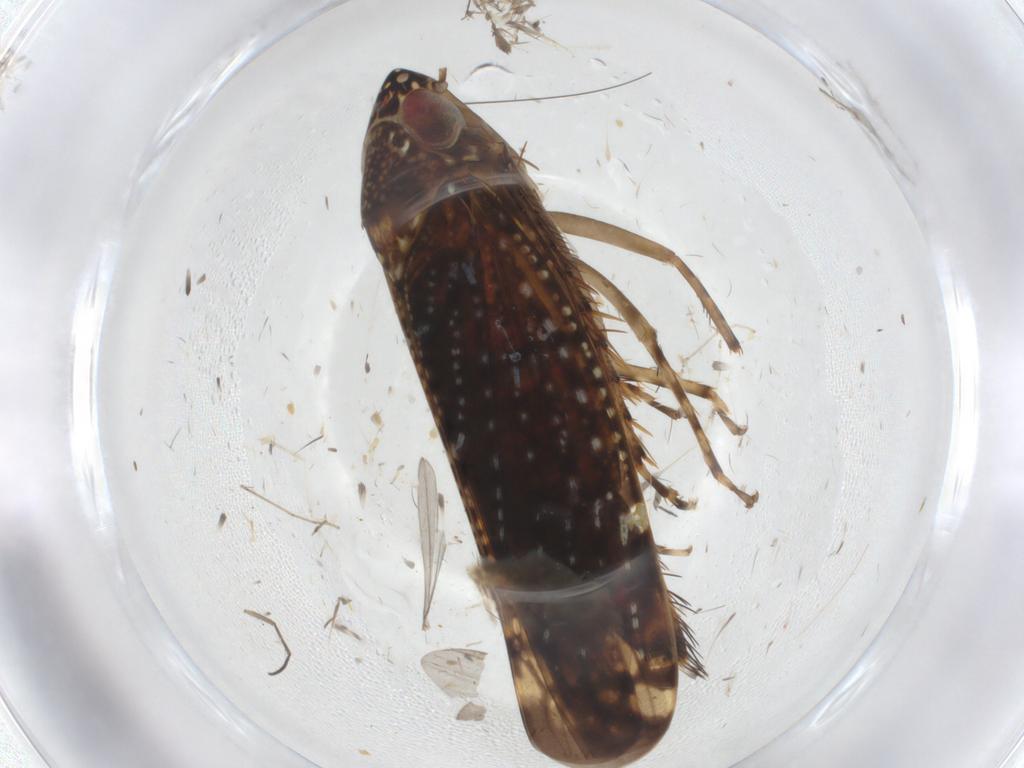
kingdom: Animalia
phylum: Arthropoda
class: Insecta
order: Hemiptera
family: Cicadellidae
